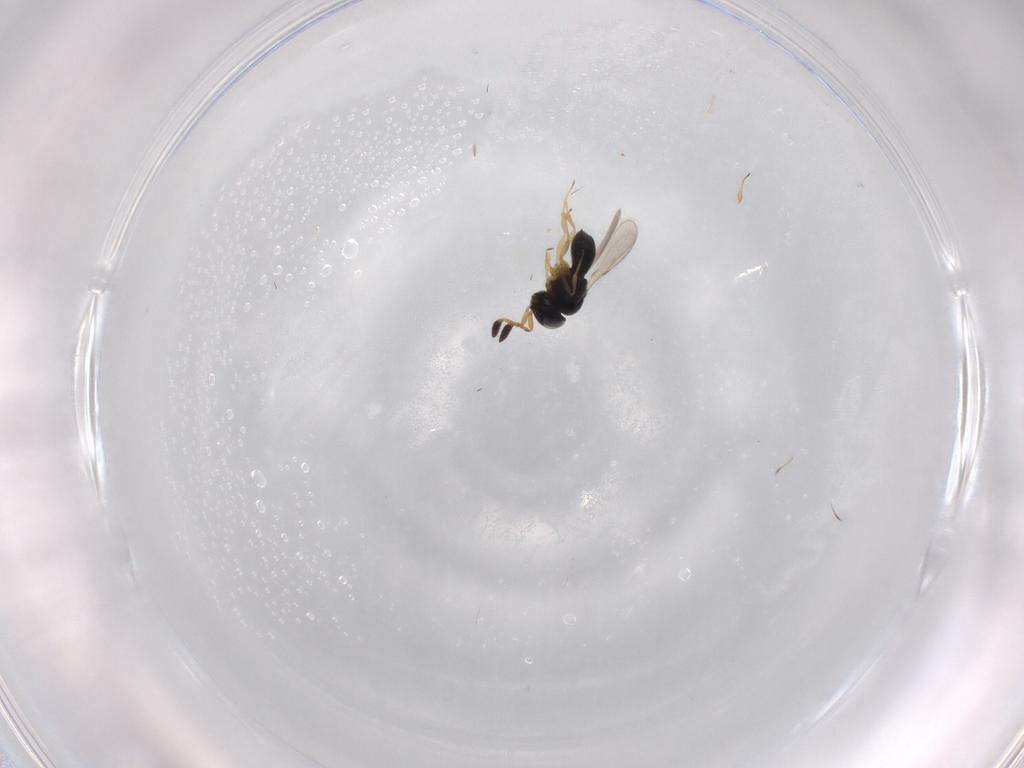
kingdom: Animalia
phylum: Arthropoda
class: Insecta
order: Hymenoptera
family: Scelionidae
